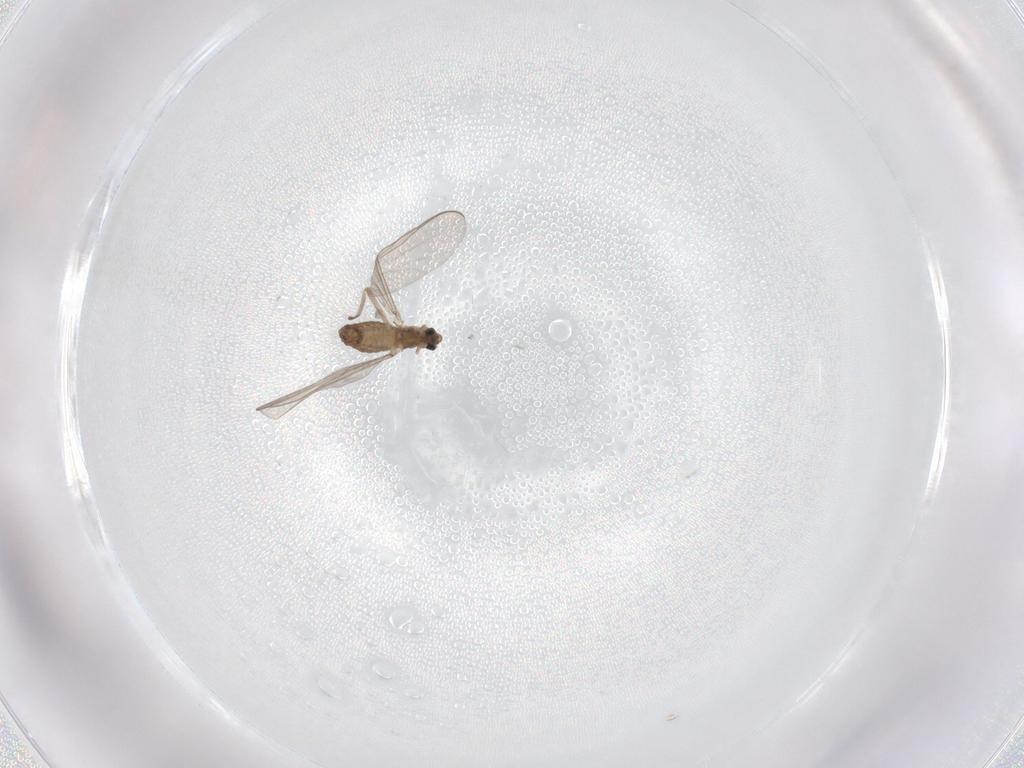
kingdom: Animalia
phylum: Arthropoda
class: Insecta
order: Diptera
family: Chironomidae
